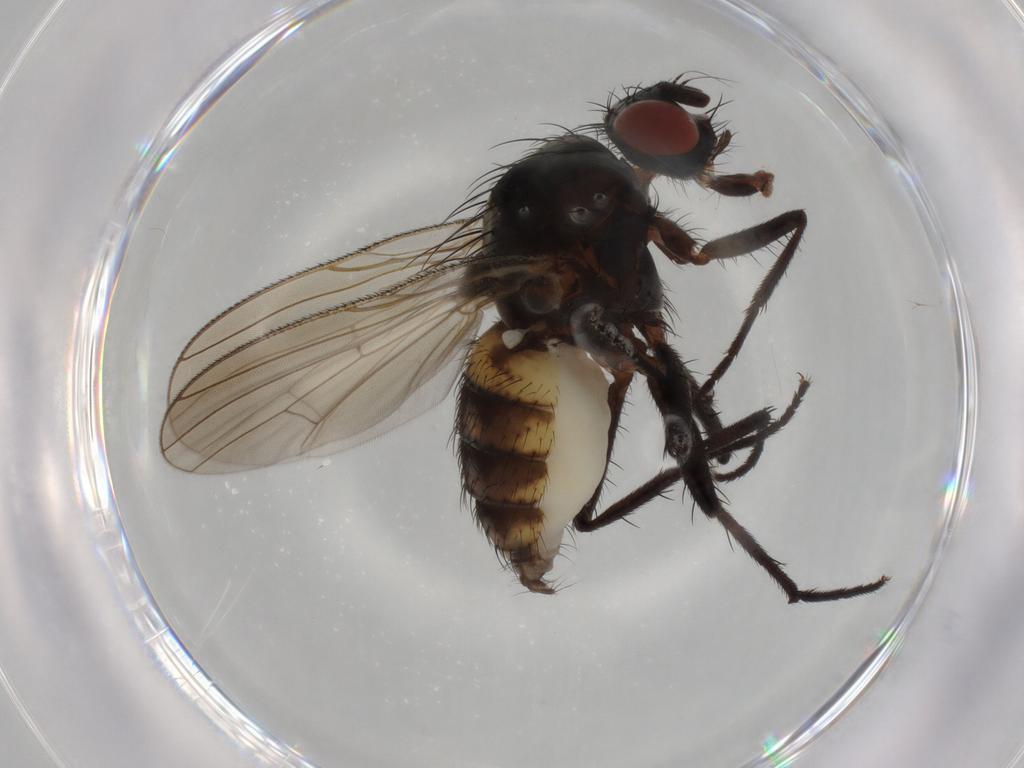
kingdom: Animalia
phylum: Arthropoda
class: Insecta
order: Diptera
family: Anthomyiidae
